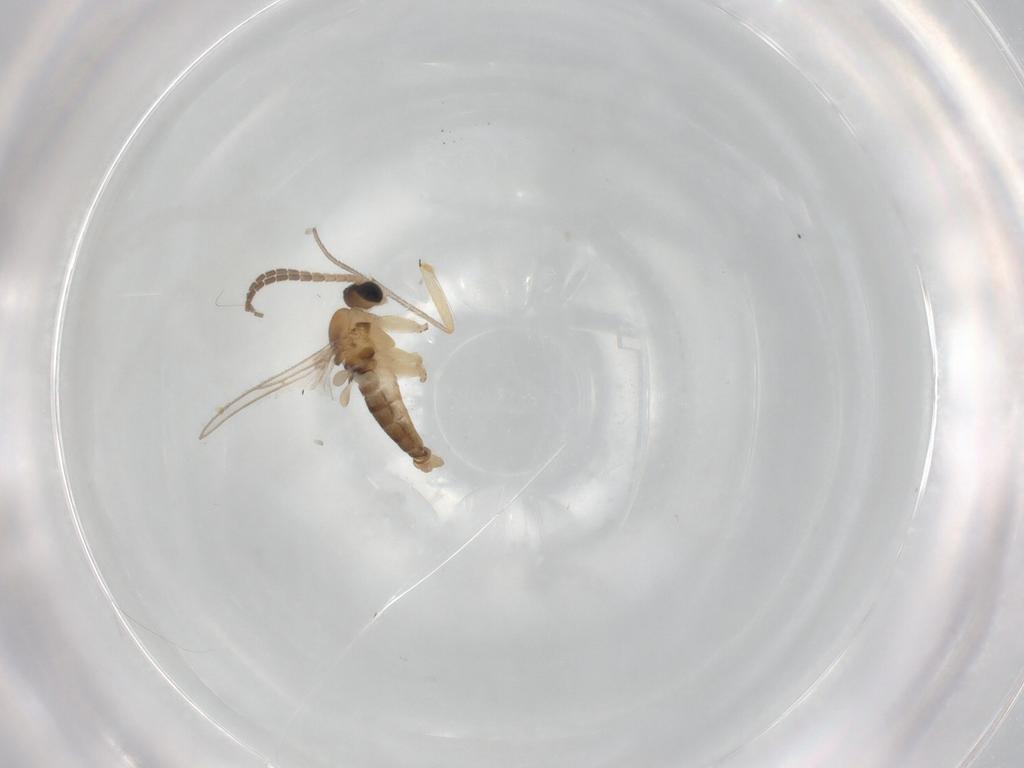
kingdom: Animalia
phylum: Arthropoda
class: Insecta
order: Diptera
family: Sciaridae
